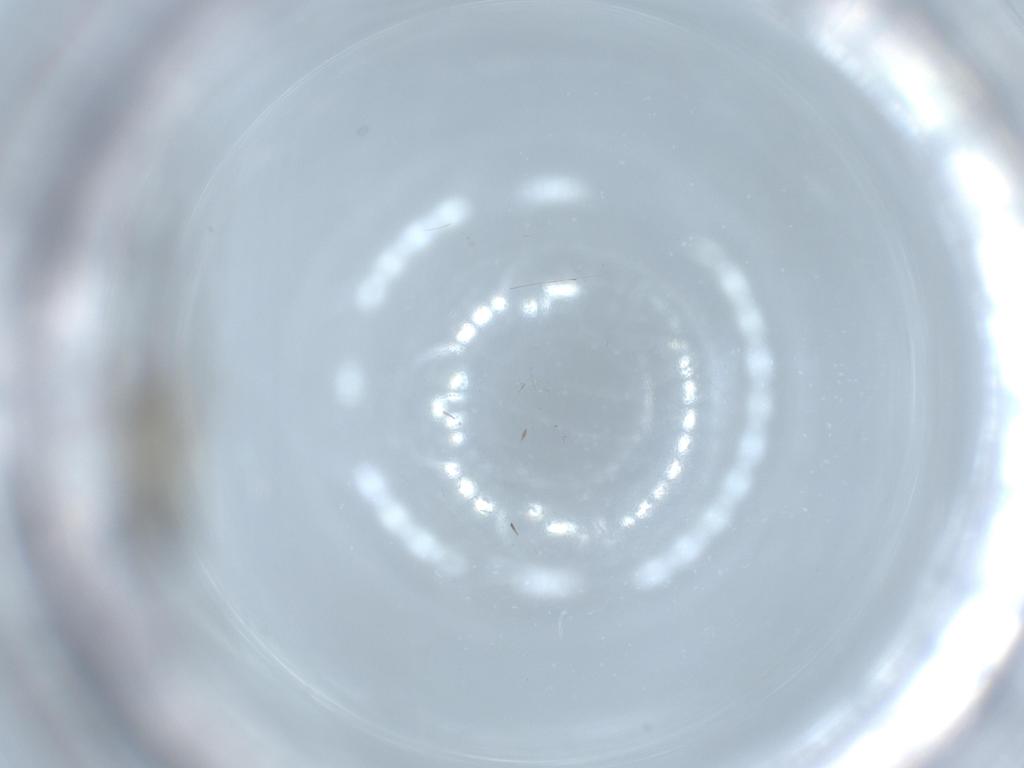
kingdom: Animalia
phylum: Arthropoda
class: Insecta
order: Diptera
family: Sciaridae
